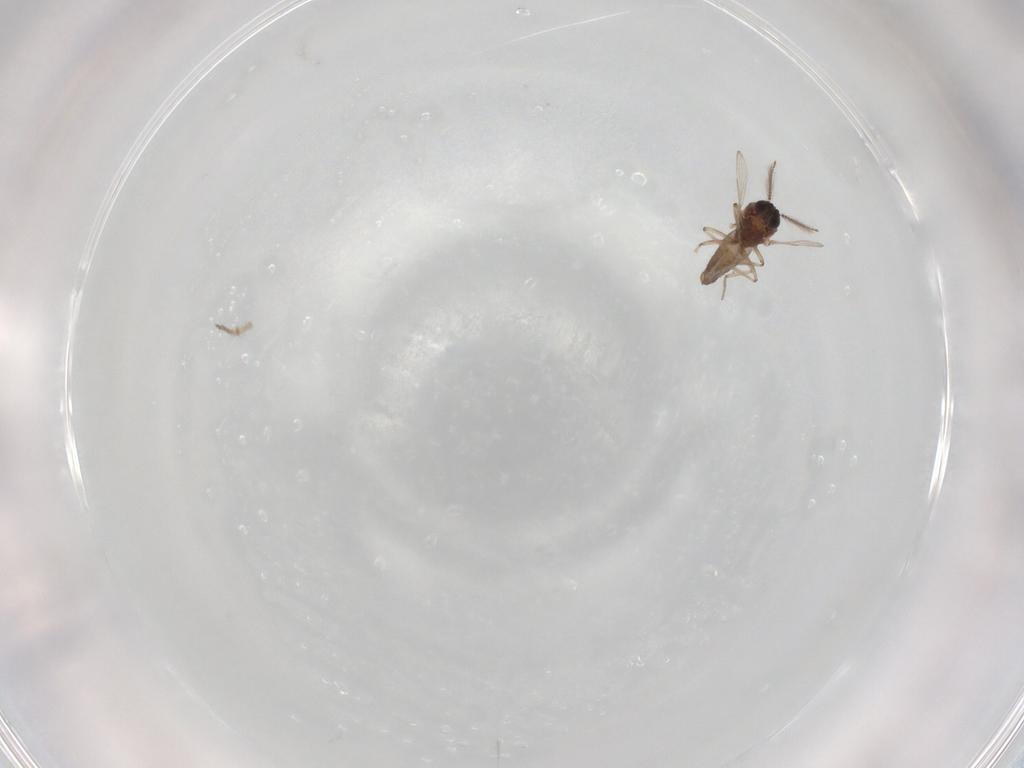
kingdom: Animalia
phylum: Arthropoda
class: Insecta
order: Diptera
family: Ceratopogonidae
